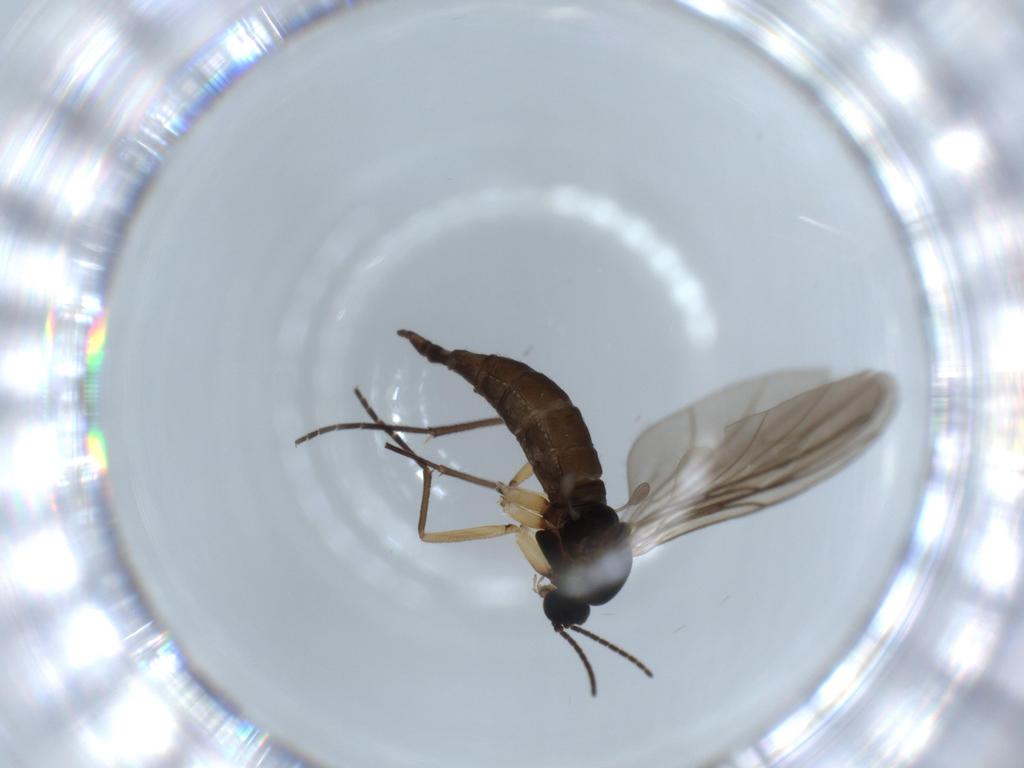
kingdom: Animalia
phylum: Arthropoda
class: Insecta
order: Diptera
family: Sciaridae
